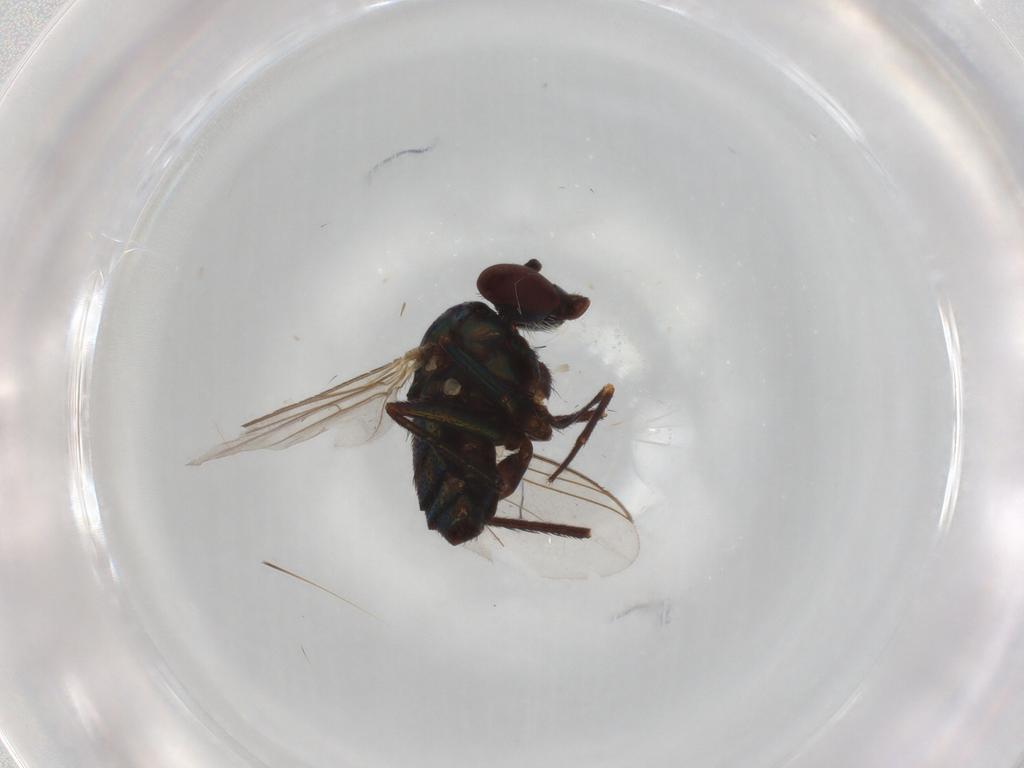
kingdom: Animalia
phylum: Arthropoda
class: Insecta
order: Diptera
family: Dolichopodidae
